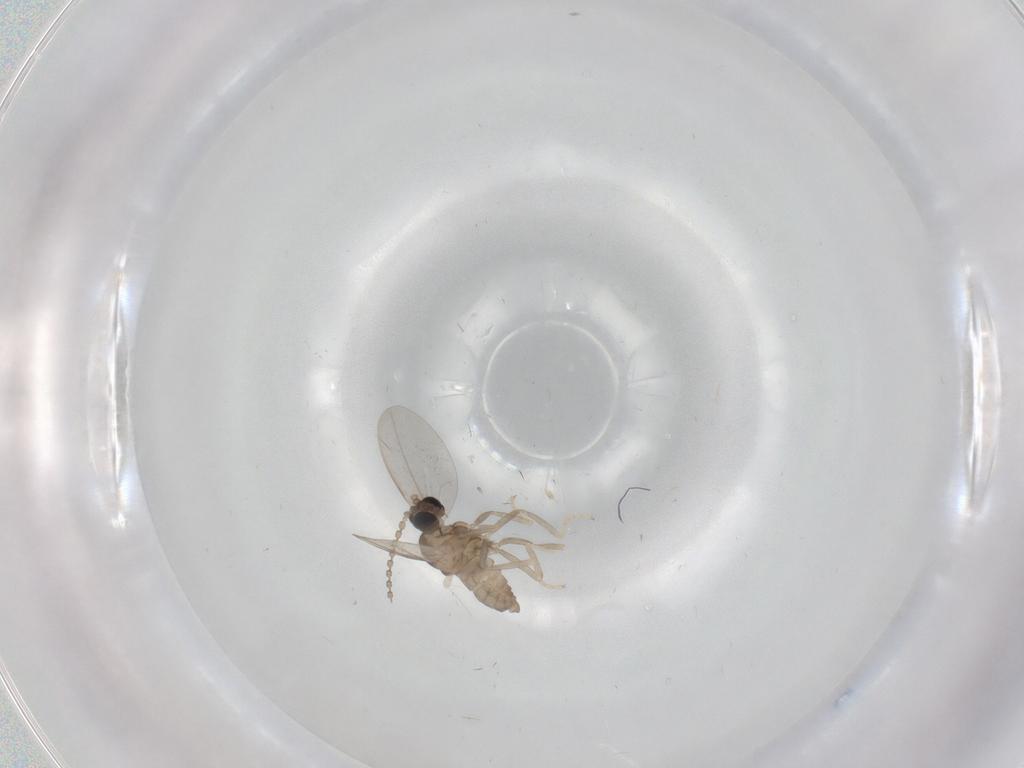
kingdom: Animalia
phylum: Arthropoda
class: Insecta
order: Diptera
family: Cecidomyiidae
